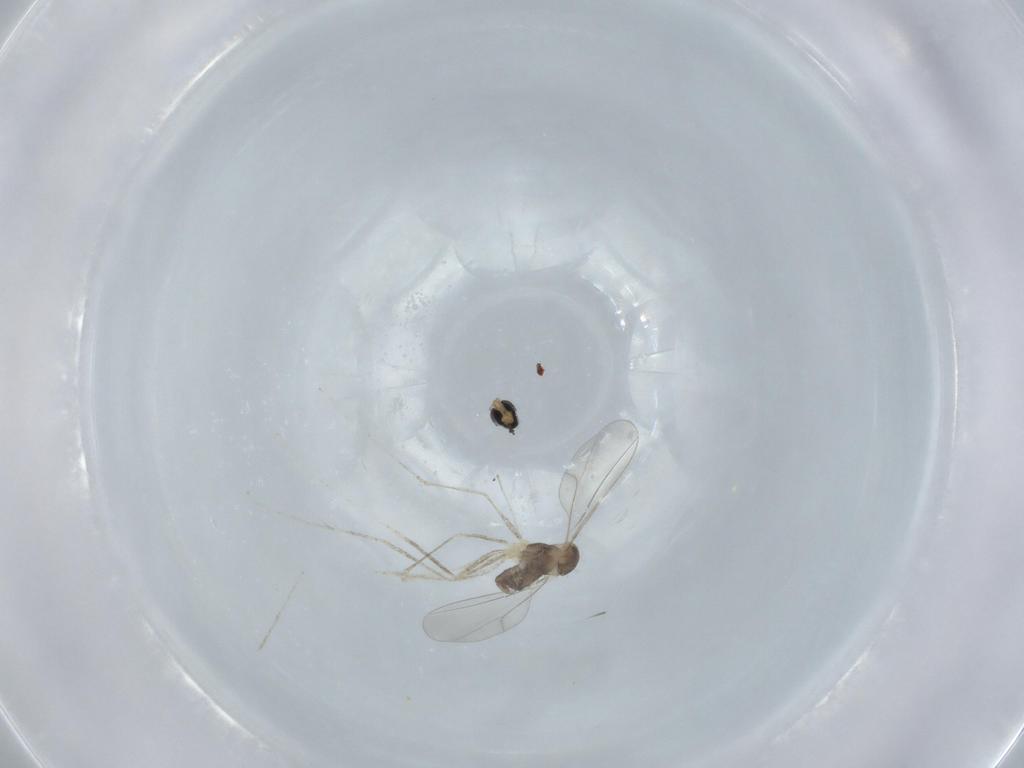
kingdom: Animalia
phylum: Arthropoda
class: Insecta
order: Diptera
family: Cecidomyiidae
